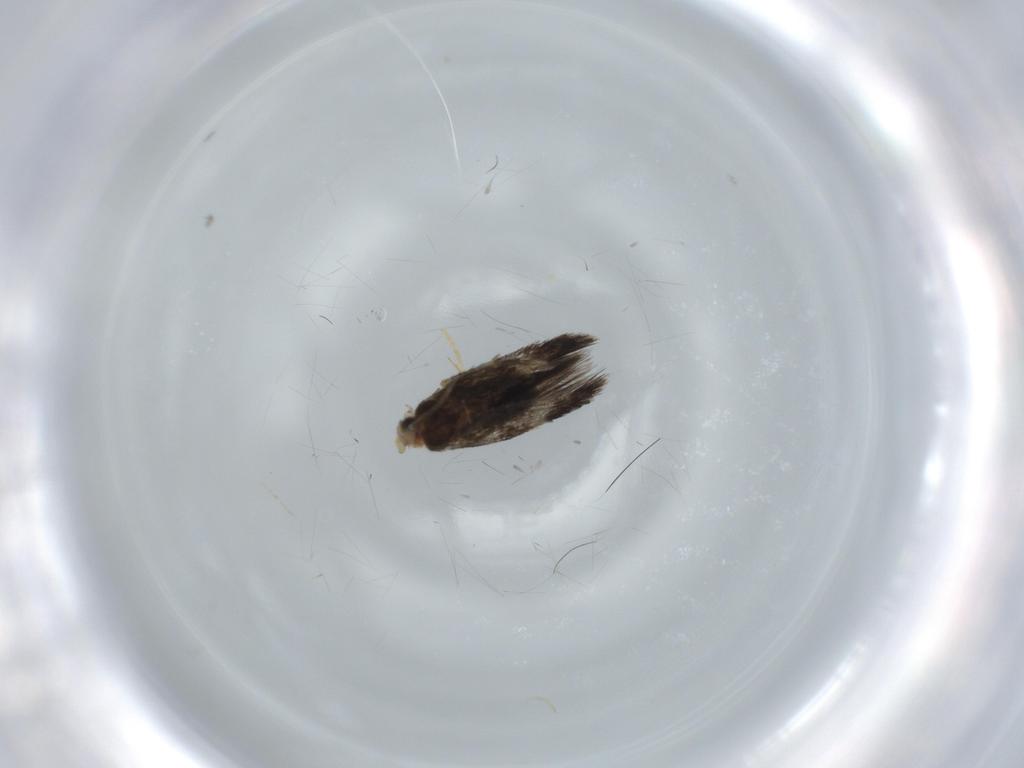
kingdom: Animalia
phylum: Arthropoda
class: Insecta
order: Lepidoptera
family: Nepticulidae
